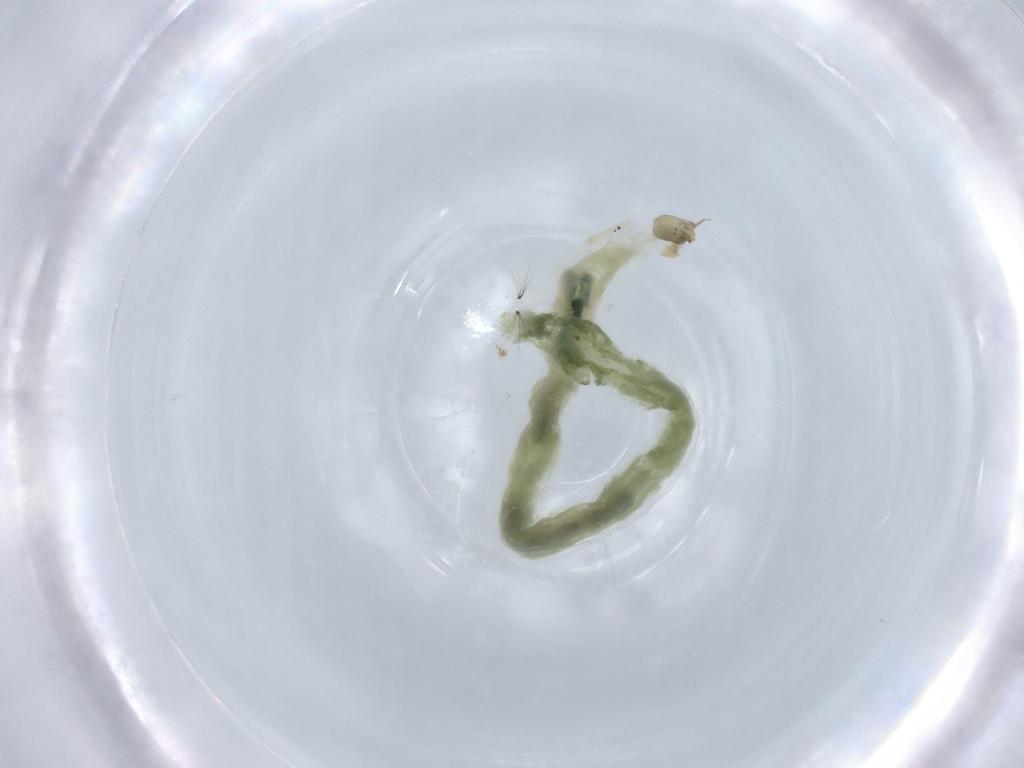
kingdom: Animalia
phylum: Arthropoda
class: Insecta
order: Diptera
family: Chironomidae
